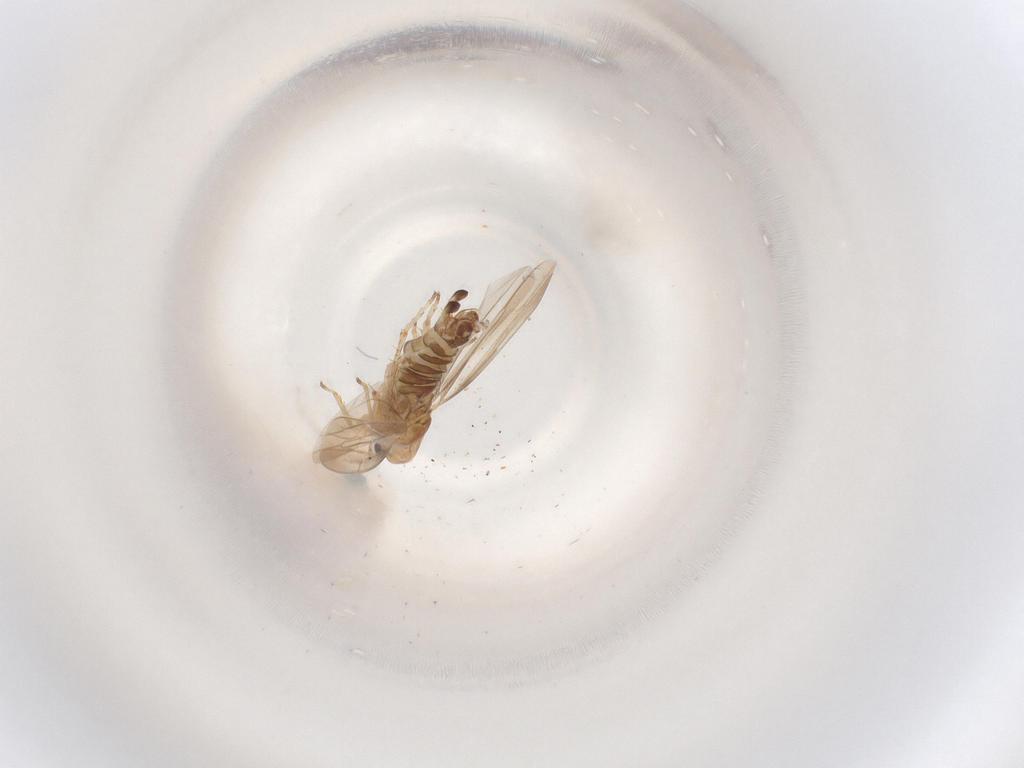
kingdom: Animalia
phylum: Arthropoda
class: Insecta
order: Hemiptera
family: Cicadellidae
